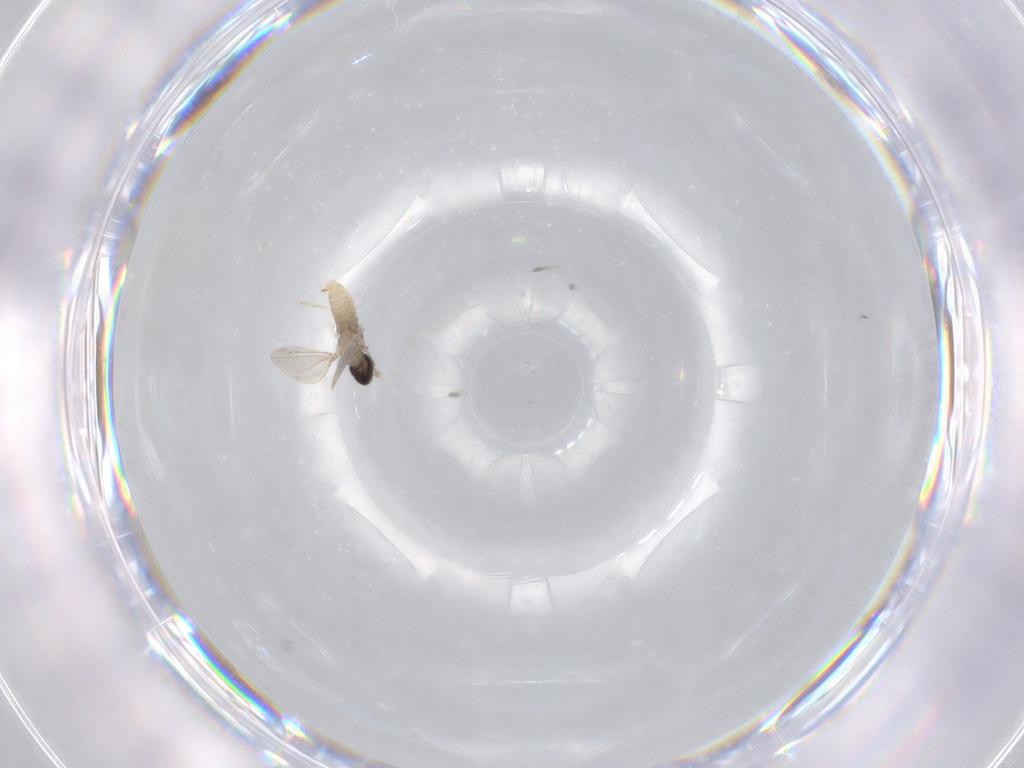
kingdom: Animalia
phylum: Arthropoda
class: Insecta
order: Diptera
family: Cecidomyiidae
